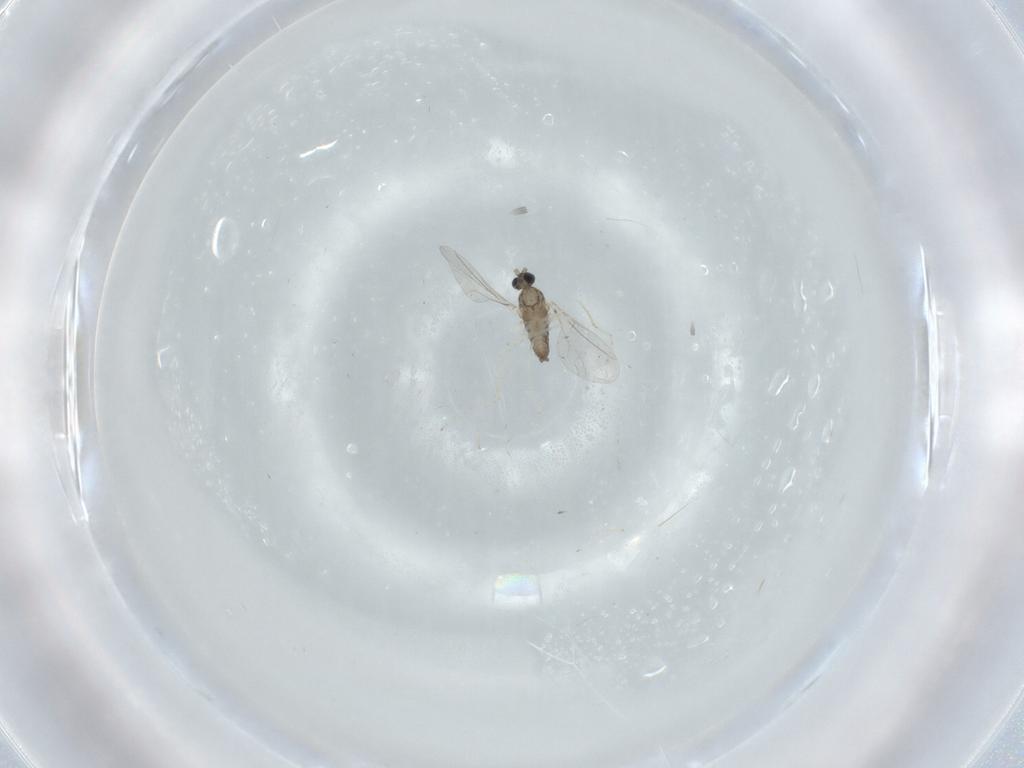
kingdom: Animalia
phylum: Arthropoda
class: Insecta
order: Diptera
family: Cecidomyiidae
